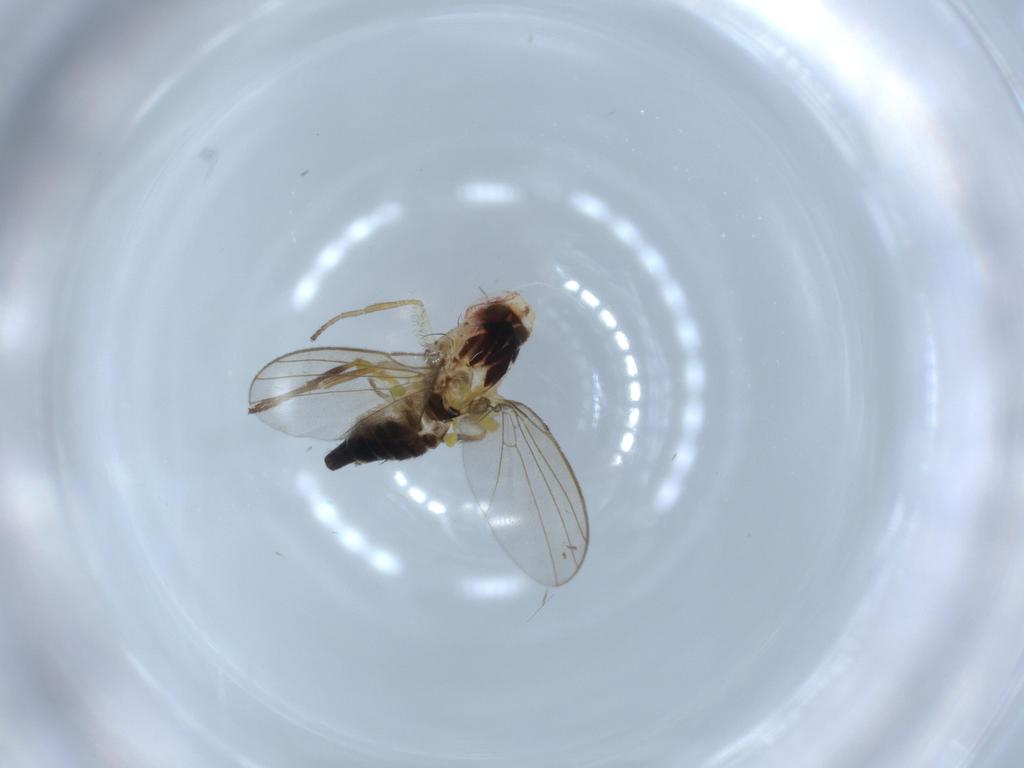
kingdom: Animalia
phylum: Arthropoda
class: Insecta
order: Diptera
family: Agromyzidae
